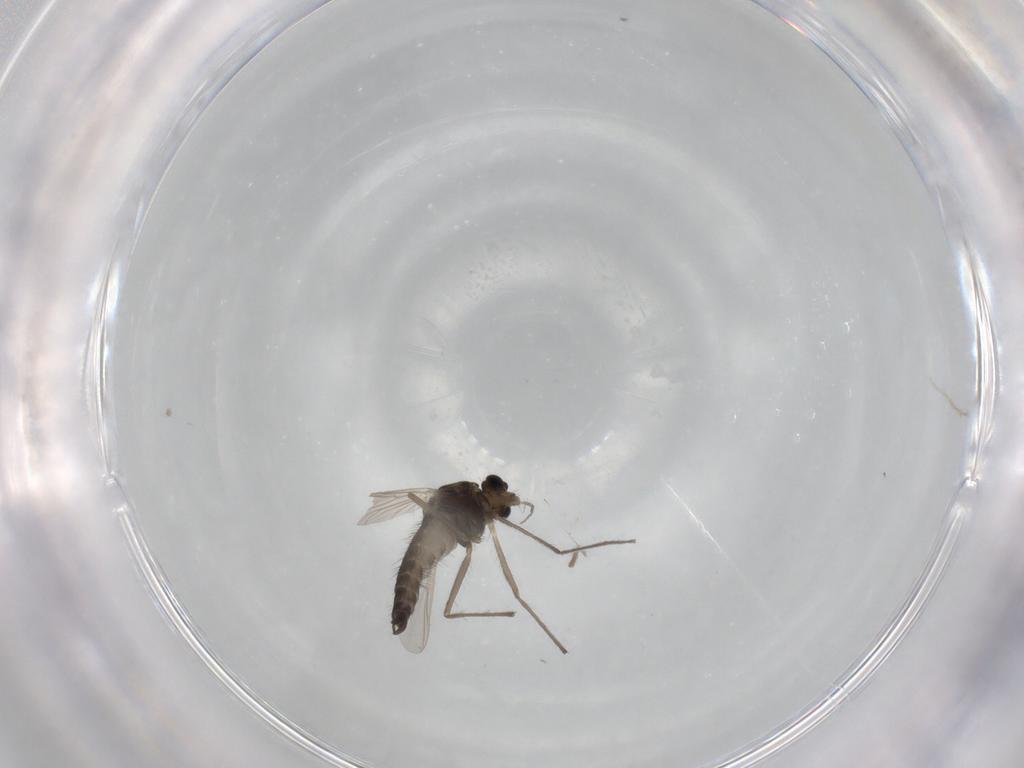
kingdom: Animalia
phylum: Arthropoda
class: Insecta
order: Diptera
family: Chironomidae
